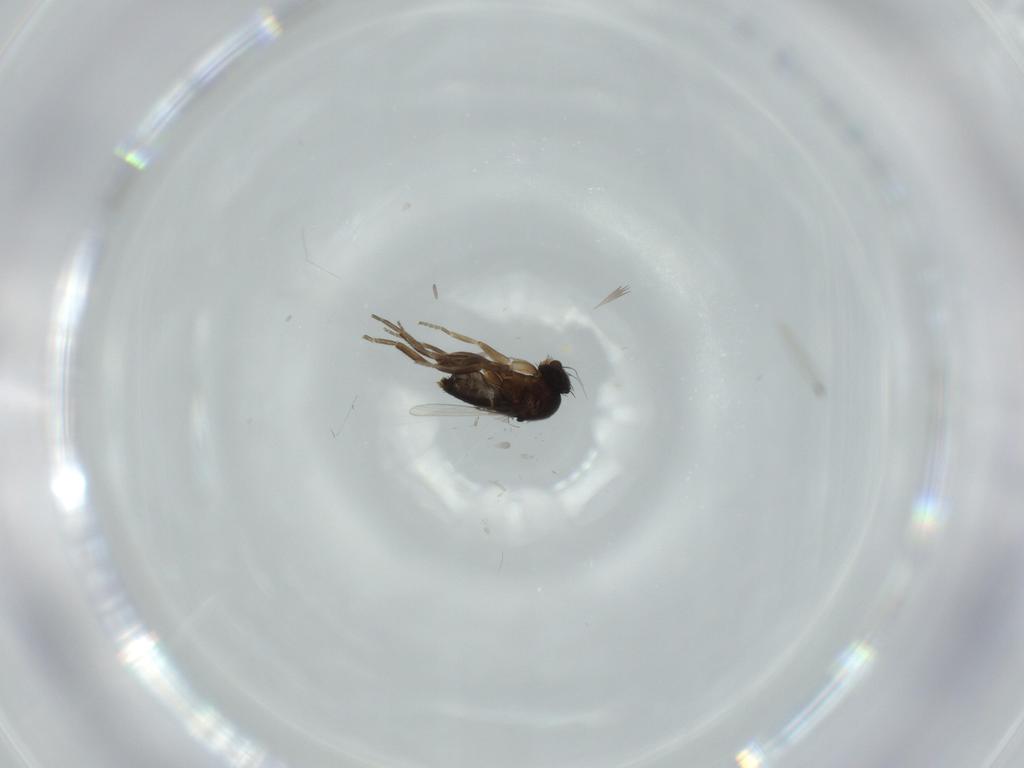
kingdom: Animalia
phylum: Arthropoda
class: Insecta
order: Diptera
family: Phoridae
